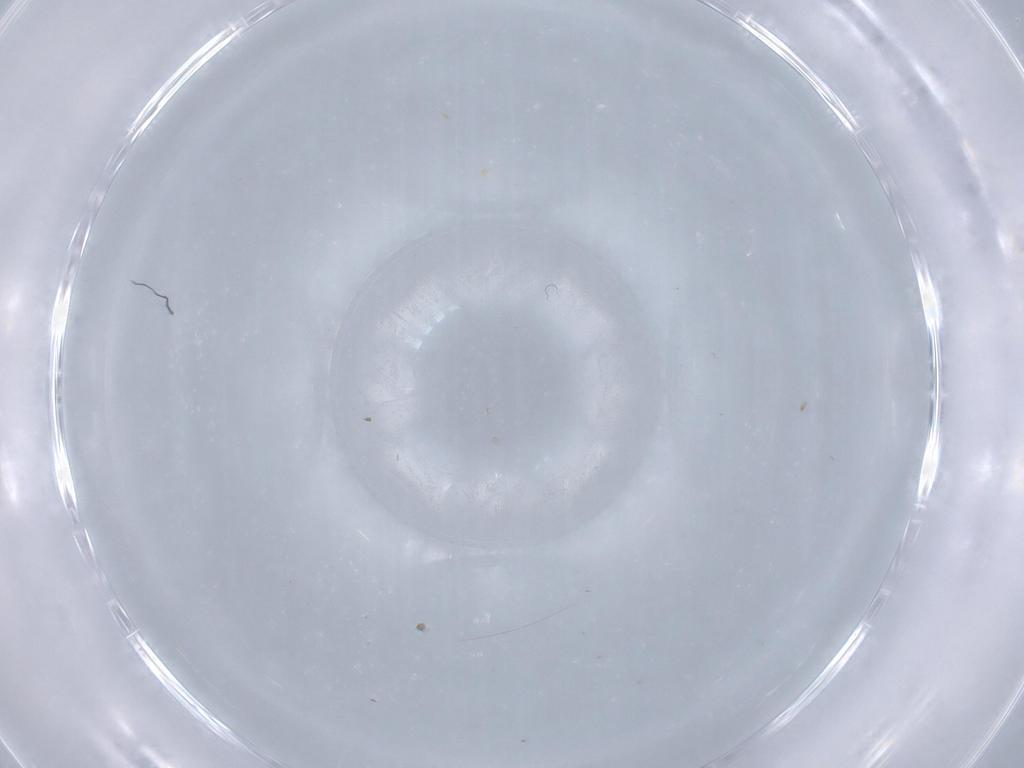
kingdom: Animalia
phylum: Arthropoda
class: Insecta
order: Diptera
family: Ceratopogonidae
